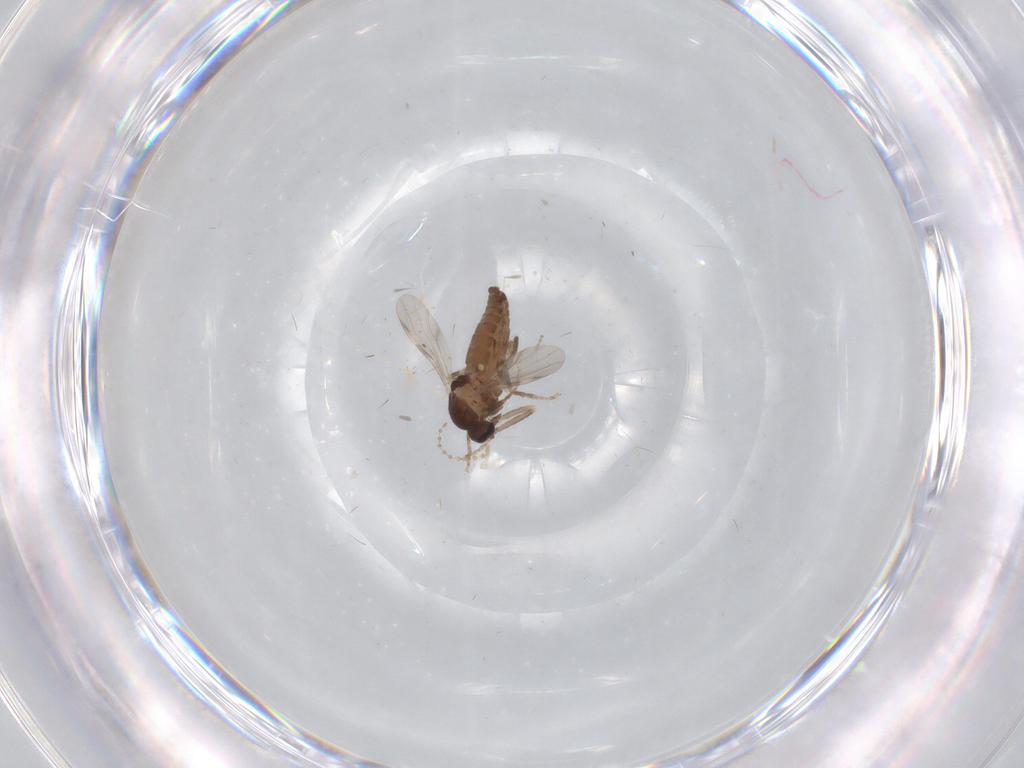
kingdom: Animalia
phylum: Arthropoda
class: Insecta
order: Diptera
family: Ceratopogonidae
